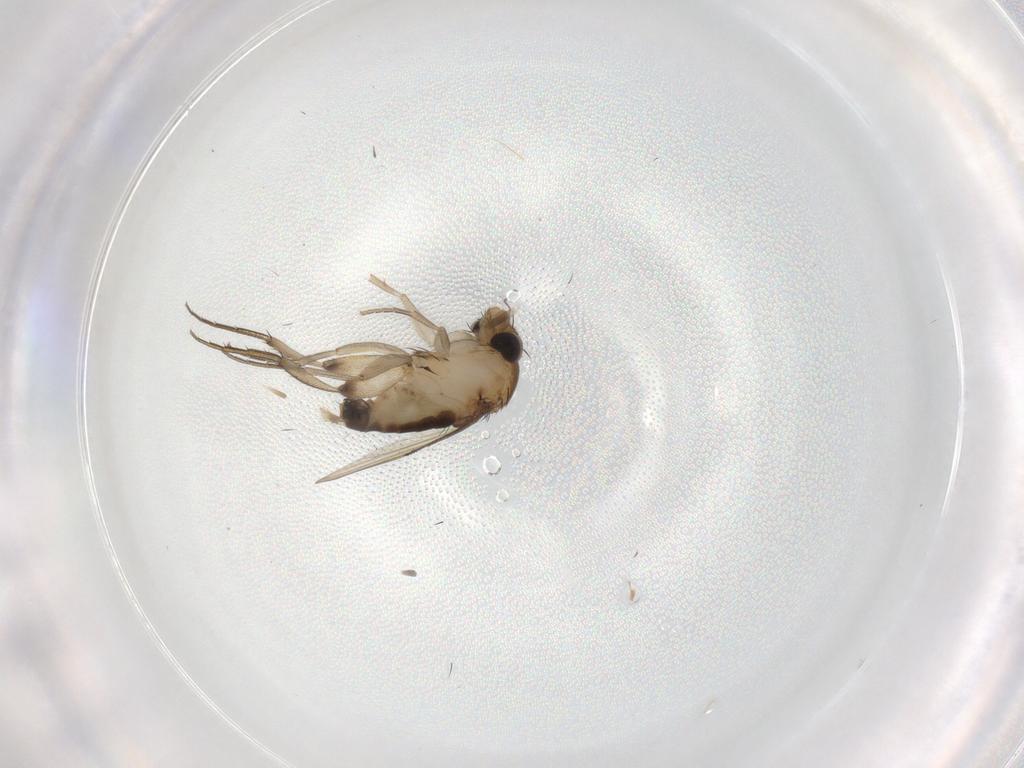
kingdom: Animalia
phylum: Arthropoda
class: Insecta
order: Diptera
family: Phoridae
